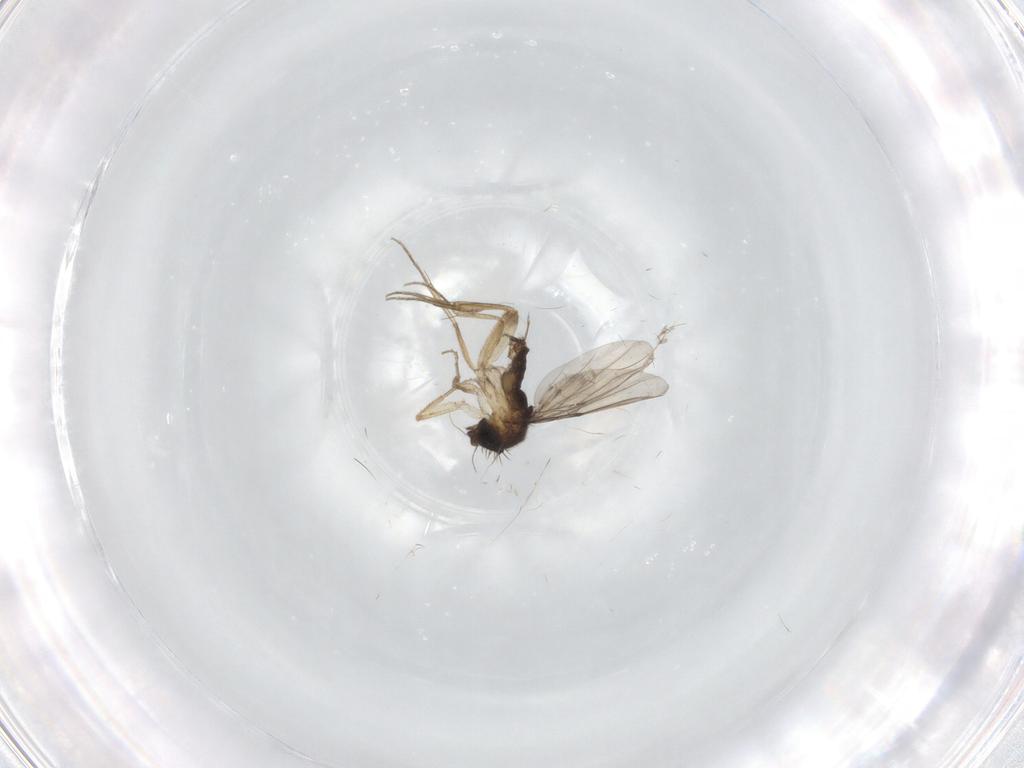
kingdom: Animalia
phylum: Arthropoda
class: Insecta
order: Diptera
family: Phoridae
